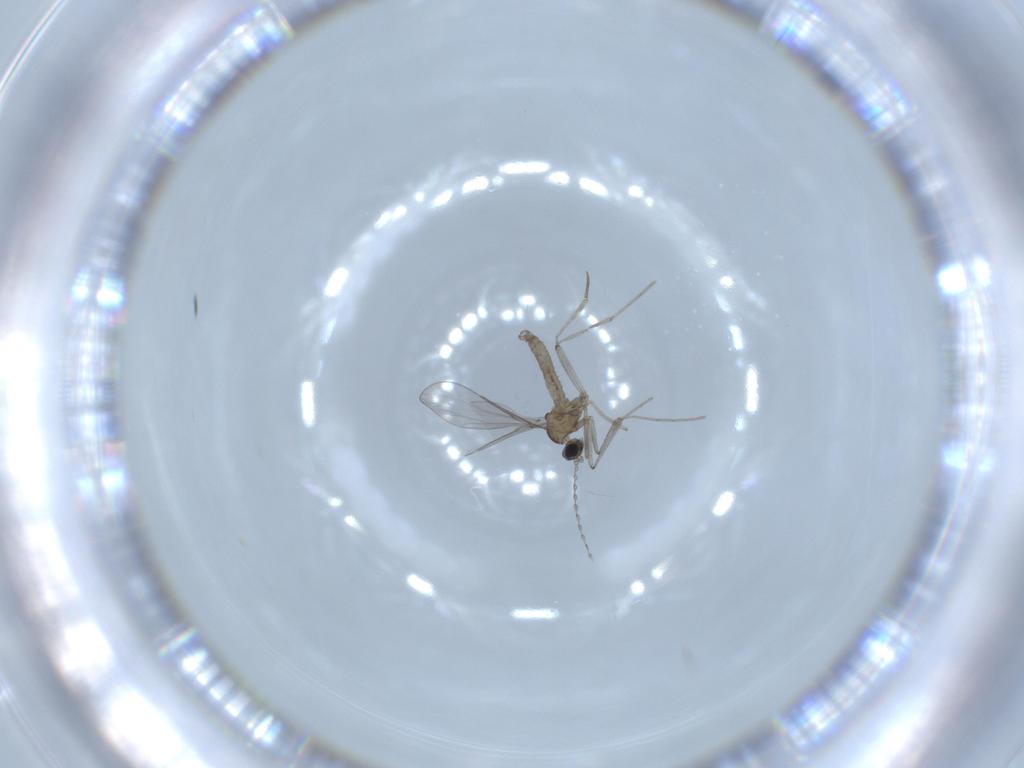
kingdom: Animalia
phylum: Arthropoda
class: Insecta
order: Diptera
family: Cecidomyiidae
